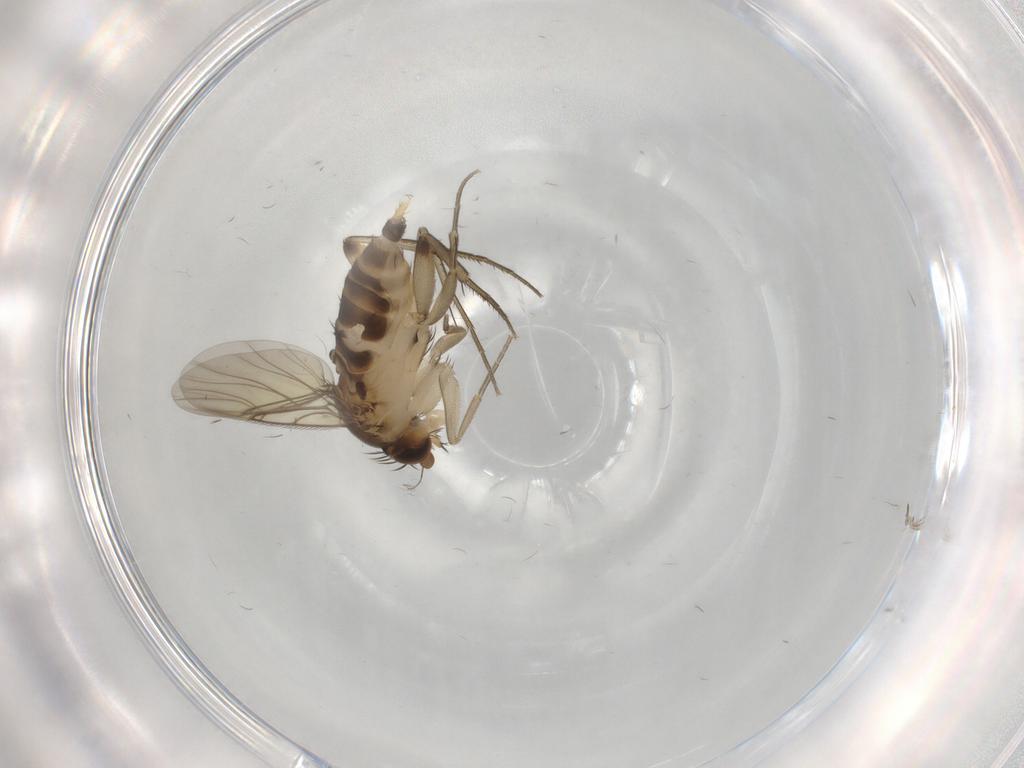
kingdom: Animalia
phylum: Arthropoda
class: Insecta
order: Diptera
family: Phoridae
